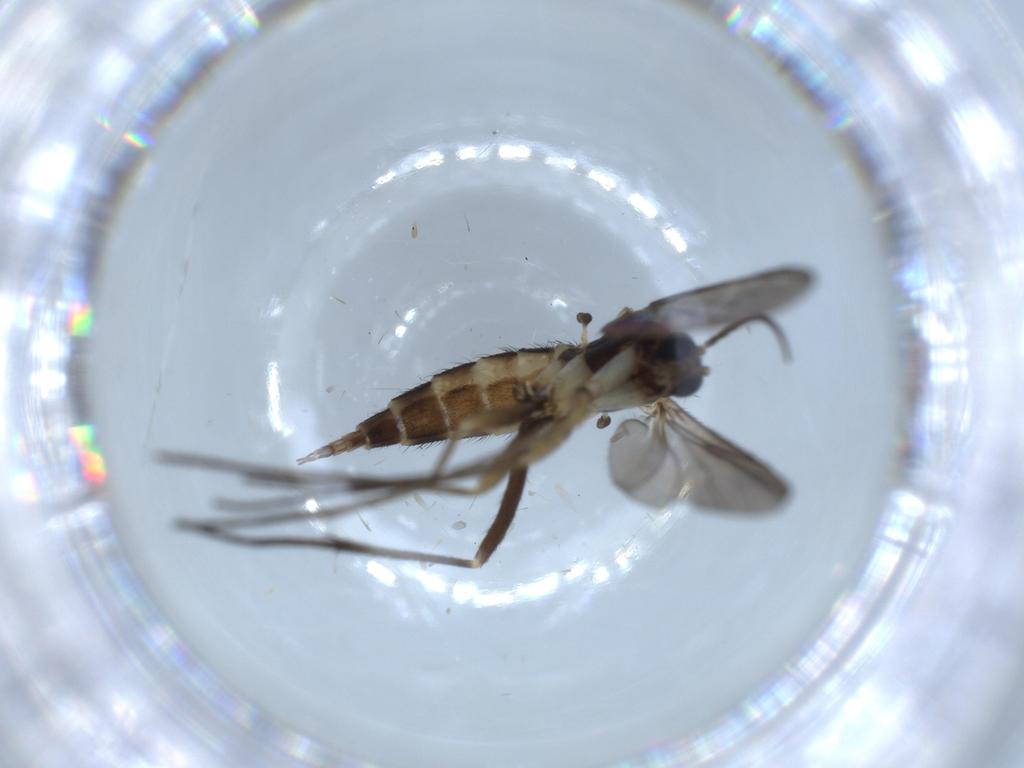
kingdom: Animalia
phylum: Arthropoda
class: Insecta
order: Diptera
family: Sciaridae
